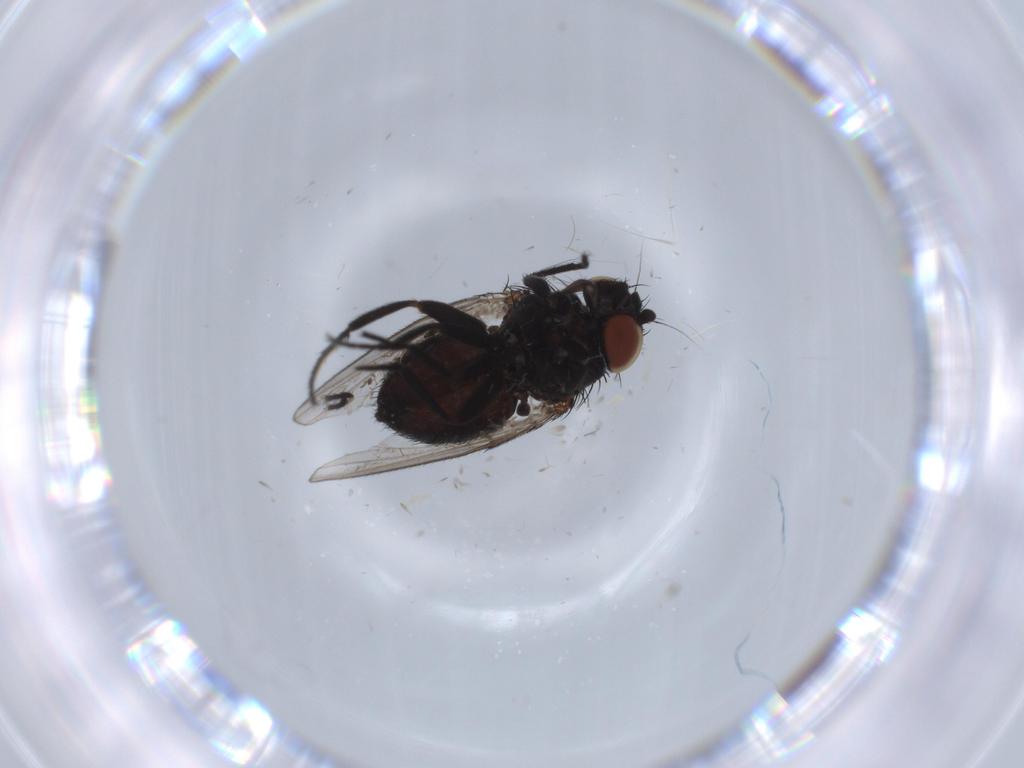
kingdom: Animalia
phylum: Arthropoda
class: Insecta
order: Diptera
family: Milichiidae
